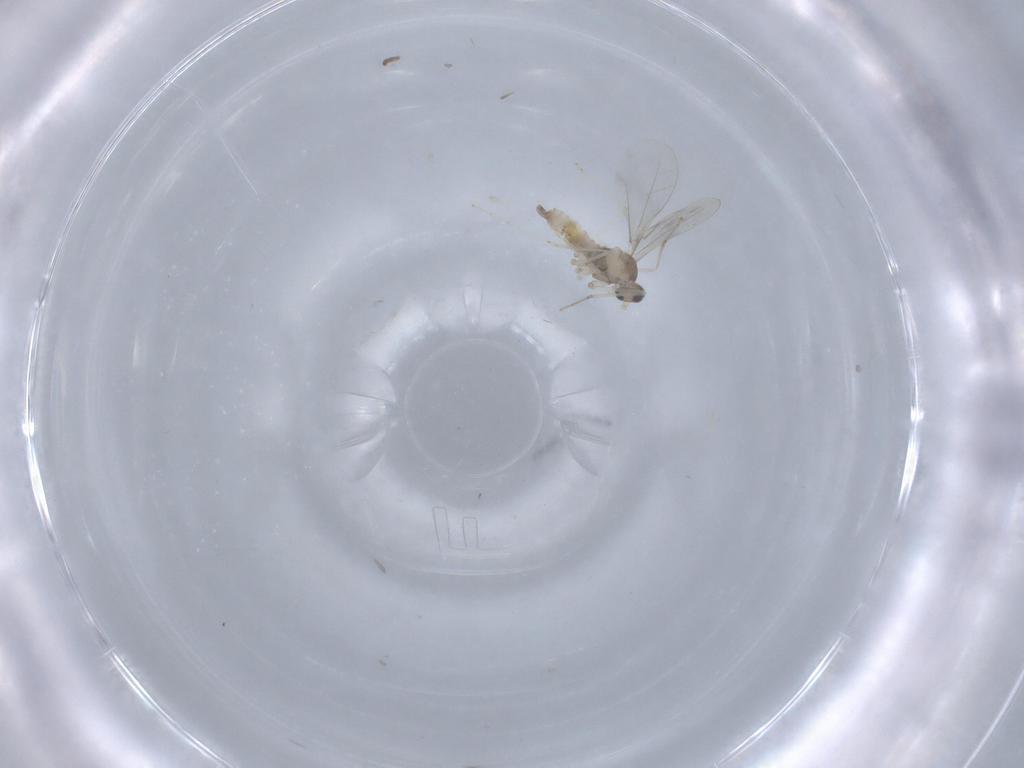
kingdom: Animalia
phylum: Arthropoda
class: Insecta
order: Diptera
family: Cecidomyiidae
